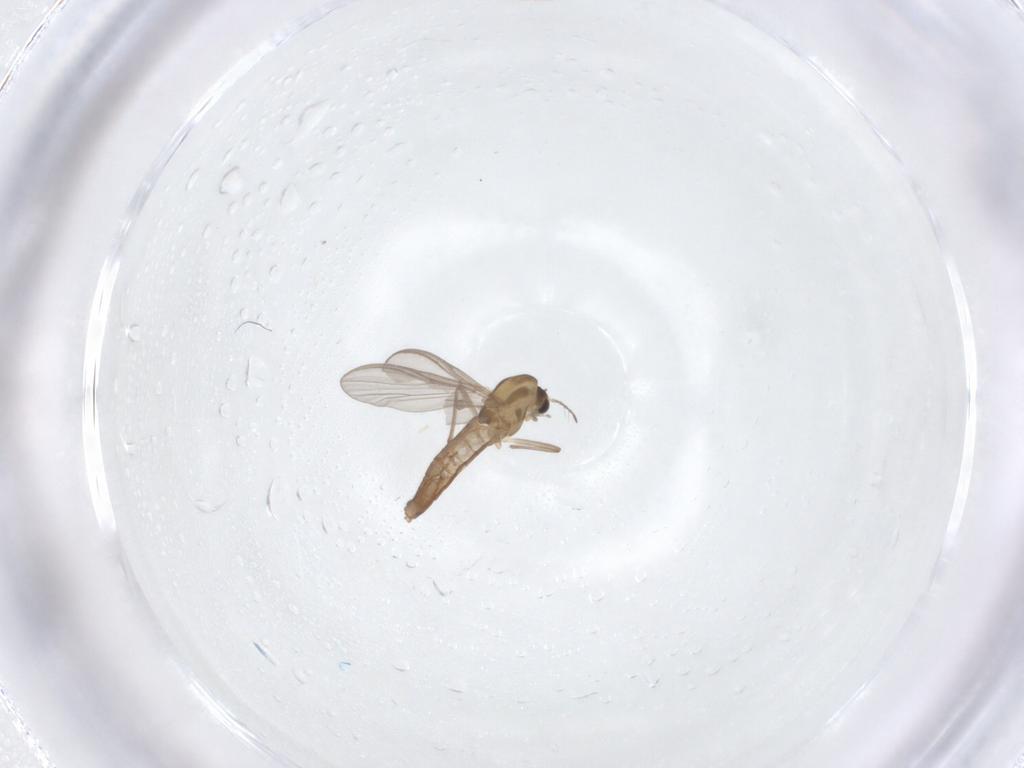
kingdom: Animalia
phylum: Arthropoda
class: Insecta
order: Diptera
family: Chironomidae
